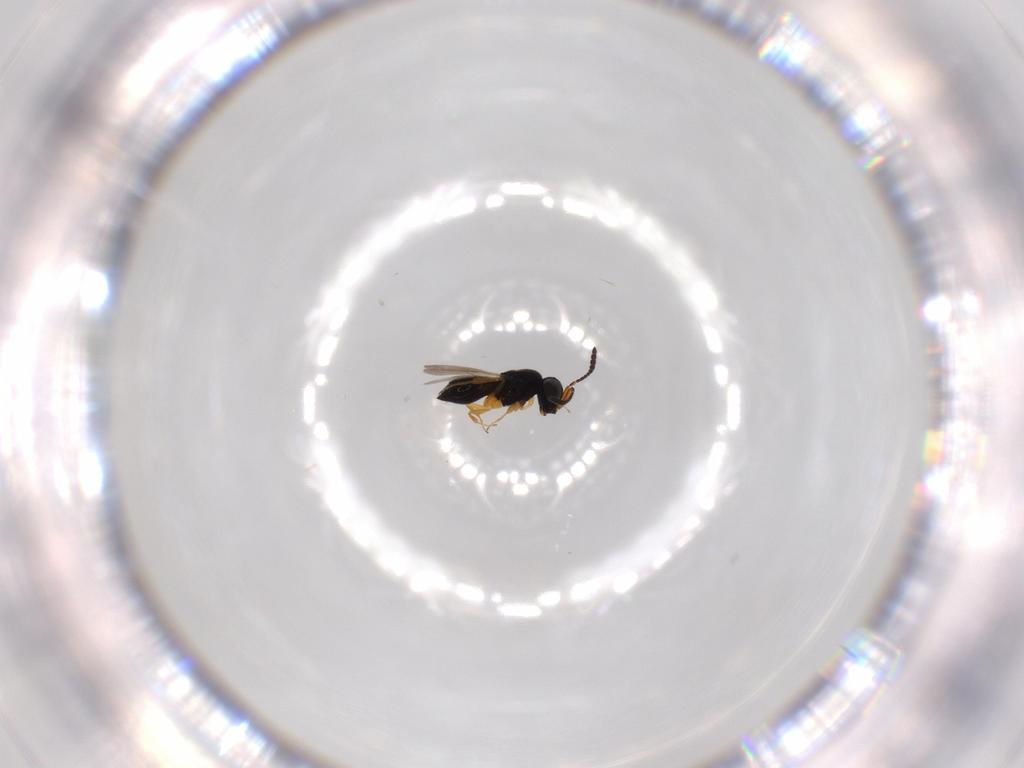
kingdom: Animalia
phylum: Arthropoda
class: Insecta
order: Hymenoptera
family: Scelionidae
